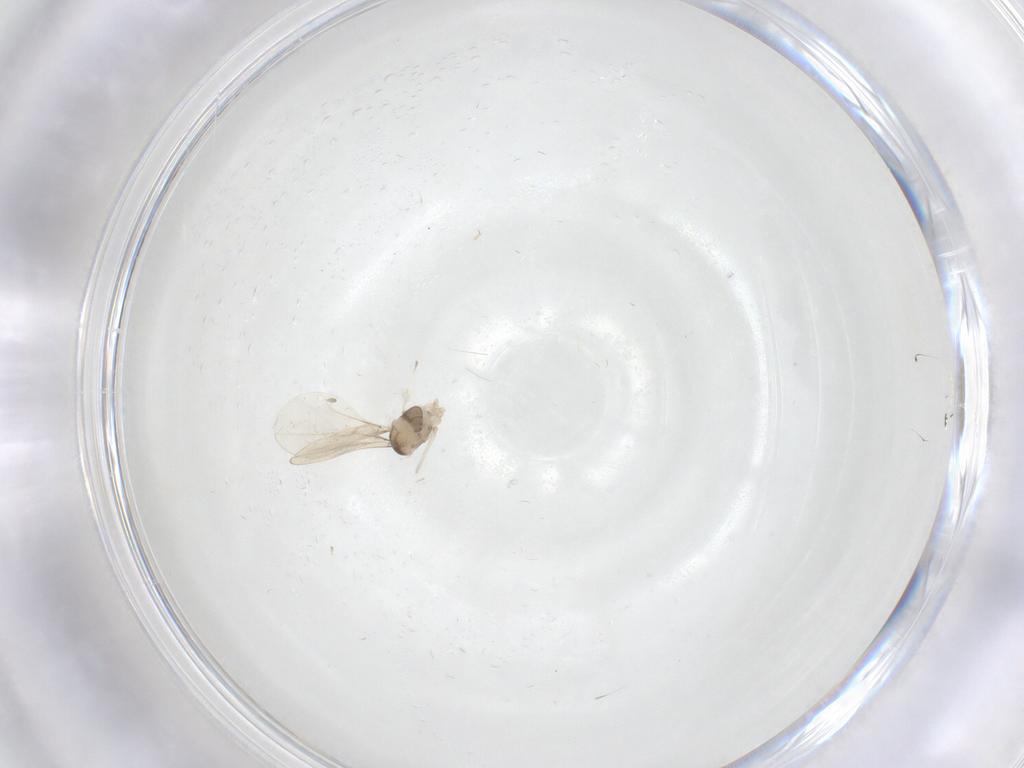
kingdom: Animalia
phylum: Arthropoda
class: Insecta
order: Diptera
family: Cecidomyiidae
